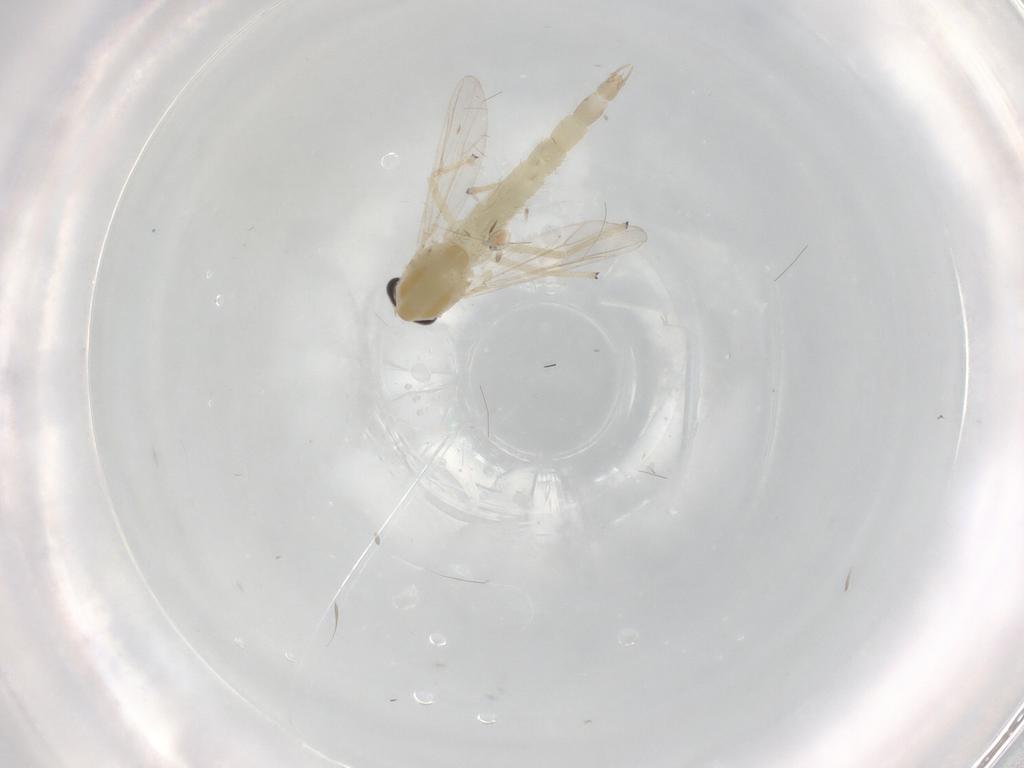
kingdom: Animalia
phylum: Arthropoda
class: Insecta
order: Diptera
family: Chironomidae
